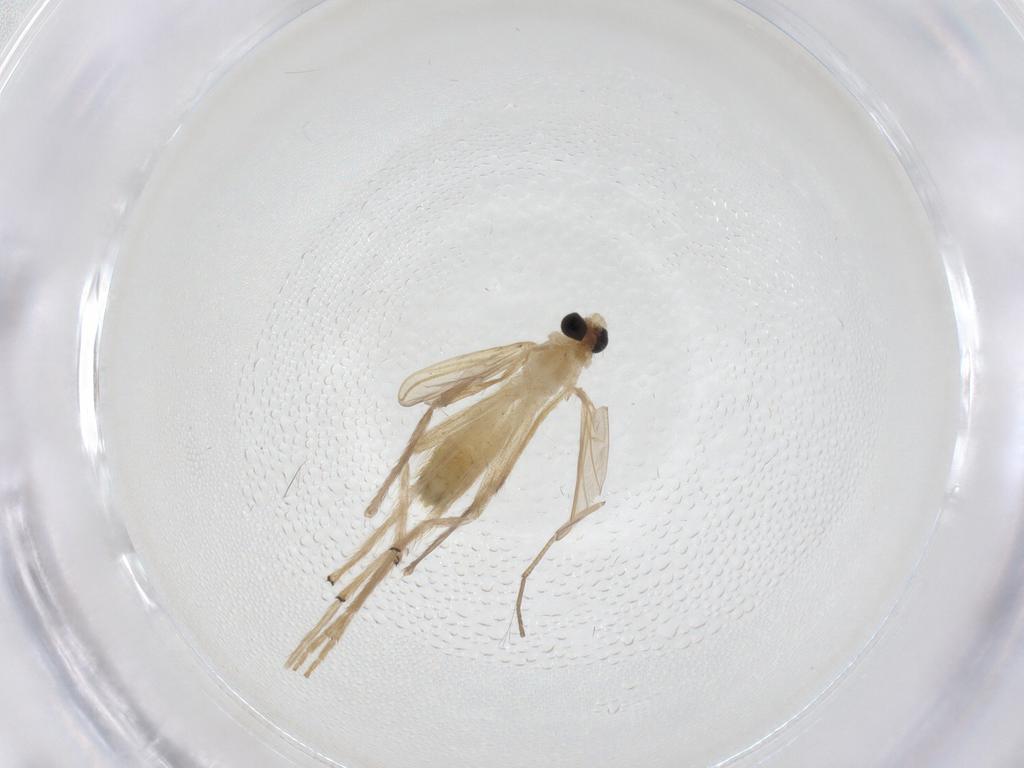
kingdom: Animalia
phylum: Arthropoda
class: Insecta
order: Diptera
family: Chironomidae
